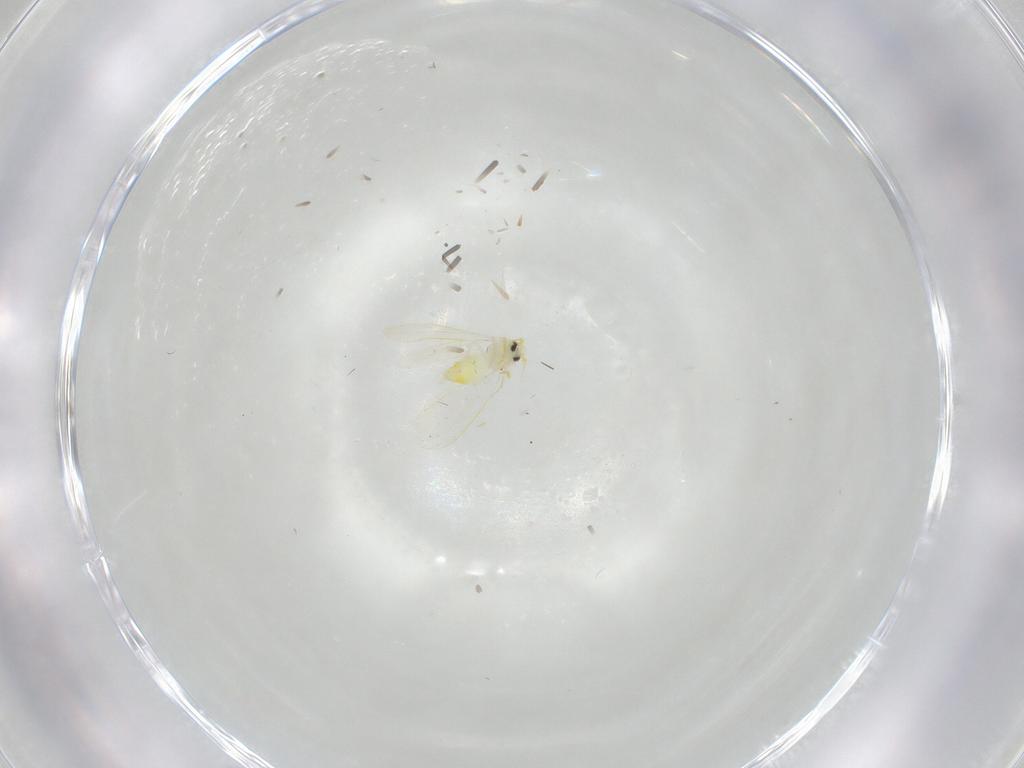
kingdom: Animalia
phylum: Arthropoda
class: Insecta
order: Hemiptera
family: Aleyrodidae
